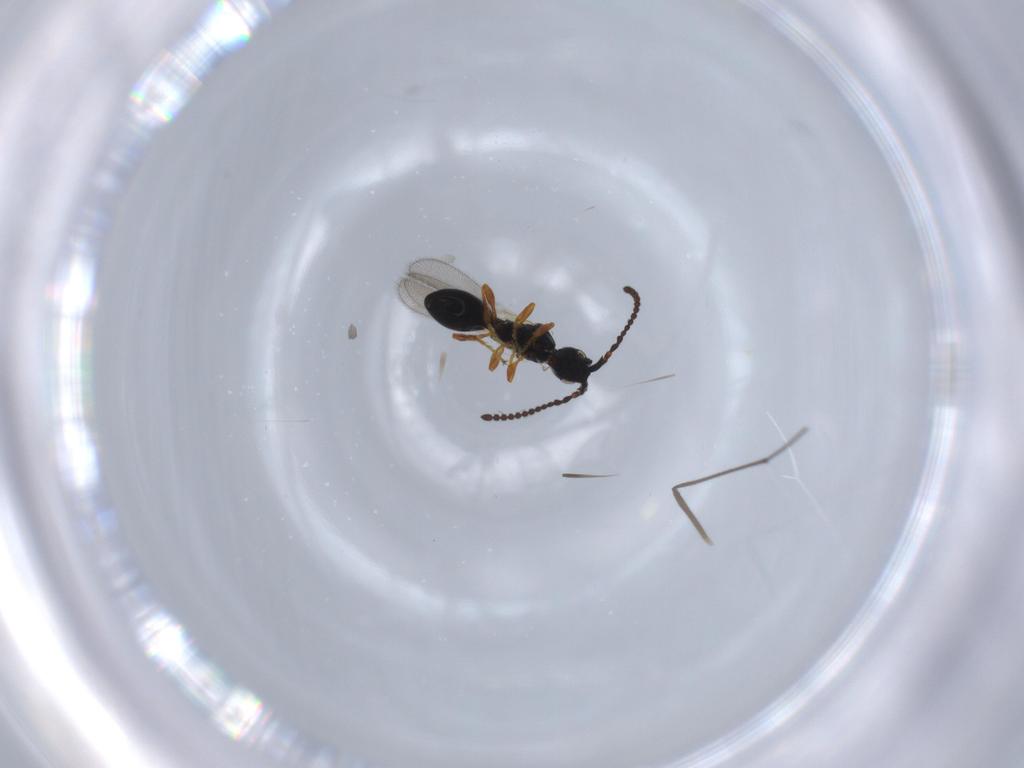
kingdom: Animalia
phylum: Arthropoda
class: Insecta
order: Hymenoptera
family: Diapriidae
